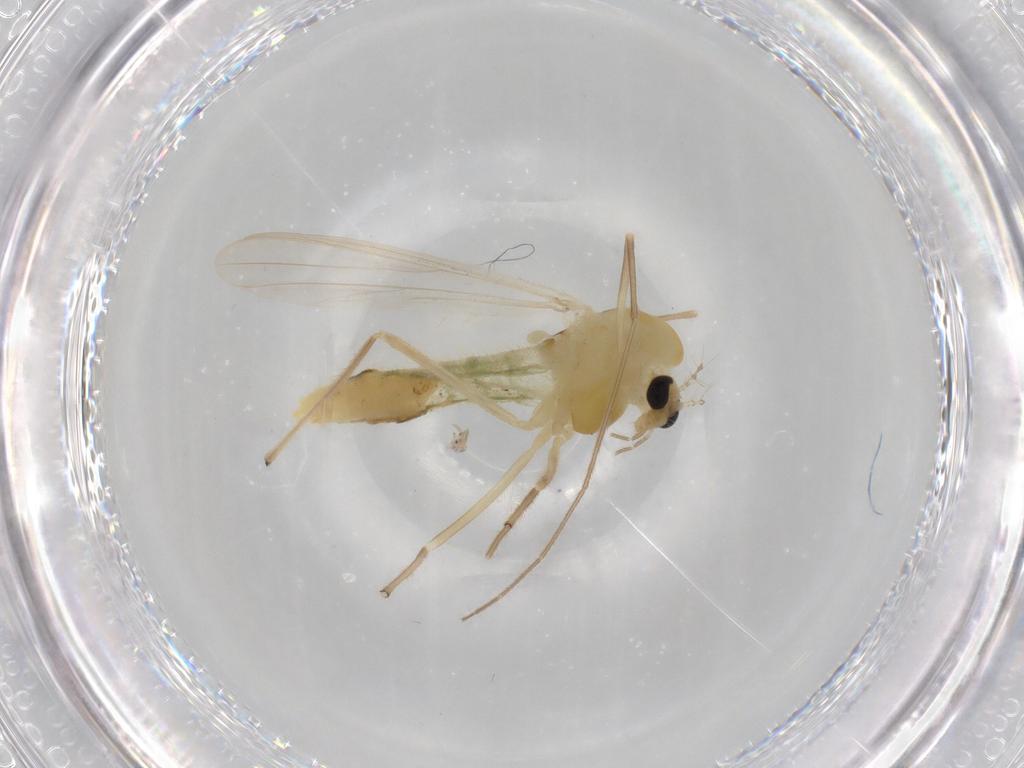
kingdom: Animalia
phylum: Arthropoda
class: Insecta
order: Diptera
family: Chironomidae
